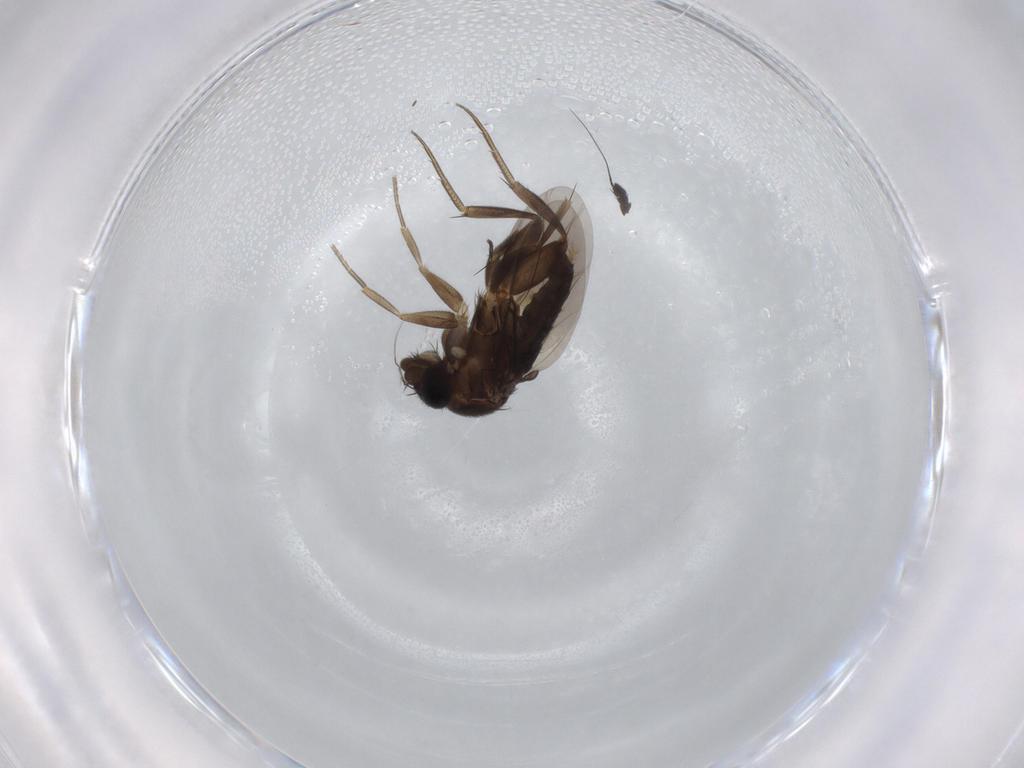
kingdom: Animalia
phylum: Arthropoda
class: Insecta
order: Diptera
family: Phoridae
